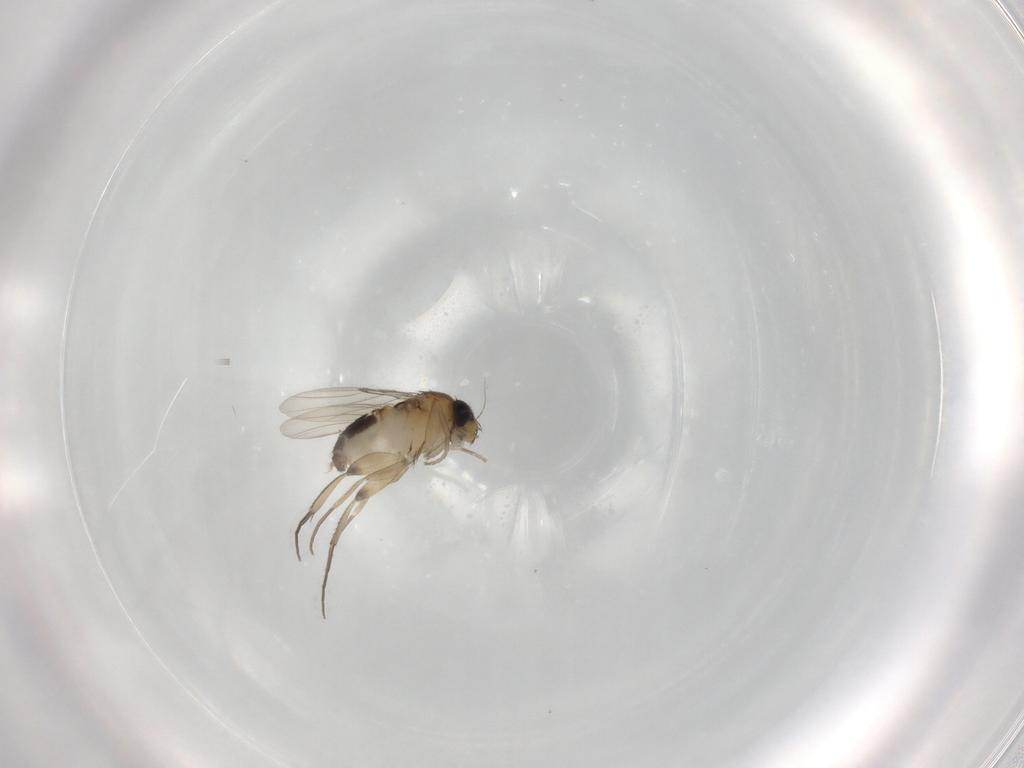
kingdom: Animalia
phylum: Arthropoda
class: Insecta
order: Diptera
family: Phoridae
